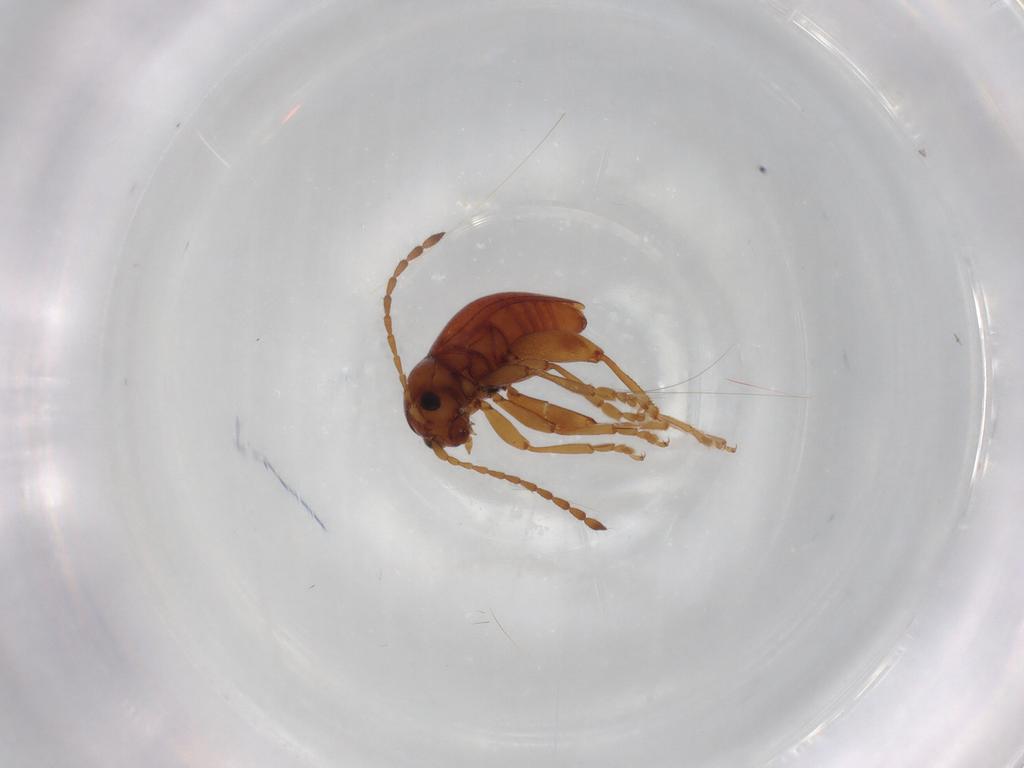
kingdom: Animalia
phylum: Arthropoda
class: Insecta
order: Coleoptera
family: Chrysomelidae
